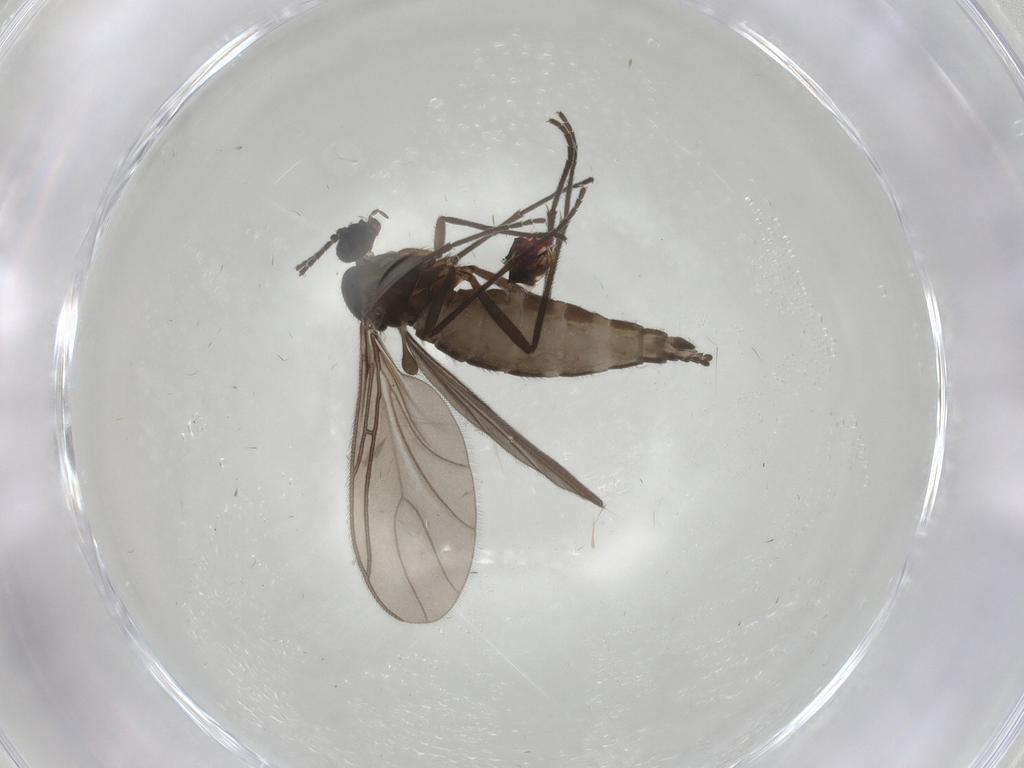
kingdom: Animalia
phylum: Arthropoda
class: Insecta
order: Diptera
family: Sciaridae
